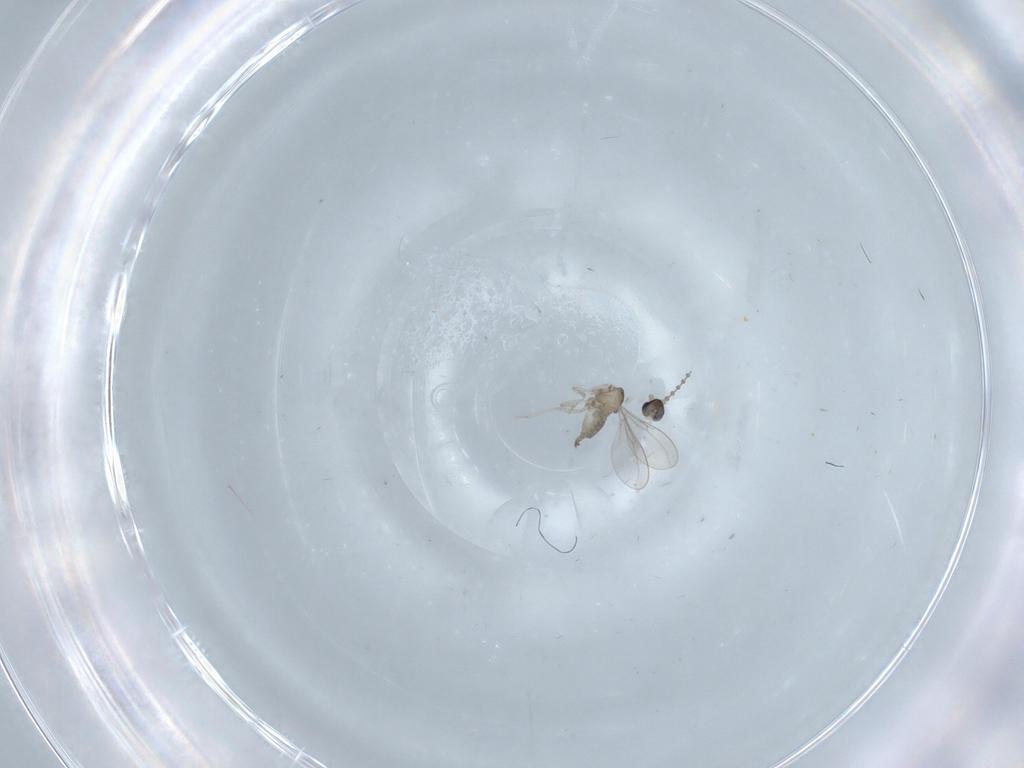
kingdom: Animalia
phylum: Arthropoda
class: Insecta
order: Diptera
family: Cecidomyiidae
